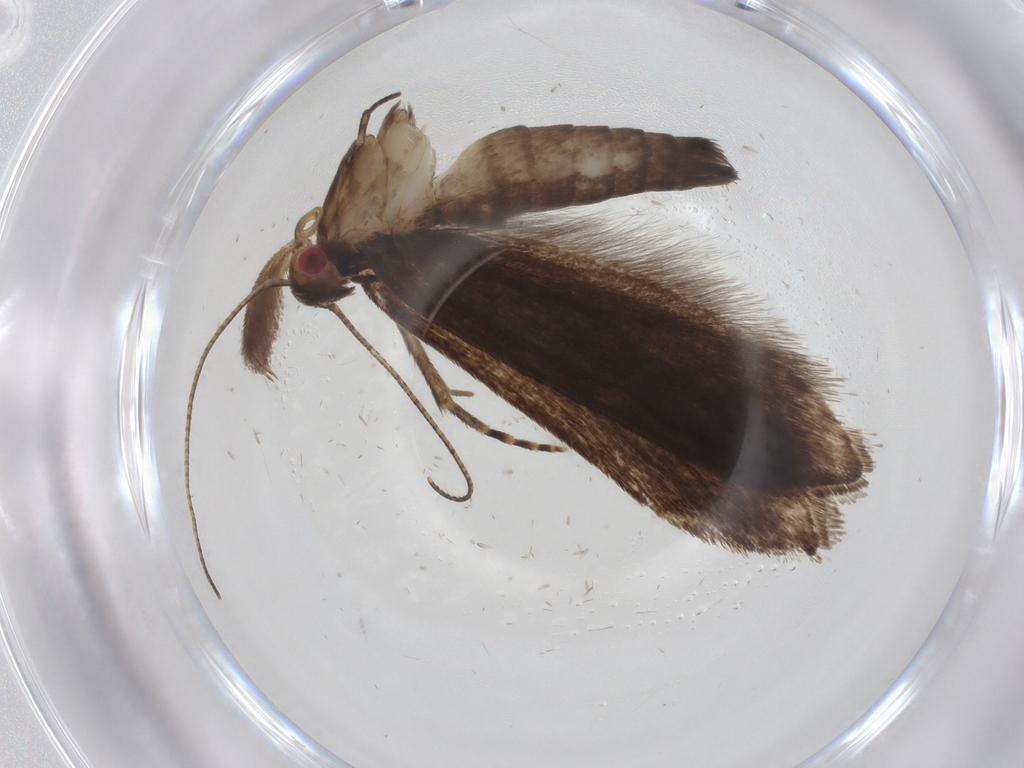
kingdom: Animalia
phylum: Arthropoda
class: Insecta
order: Lepidoptera
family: Gelechiidae
